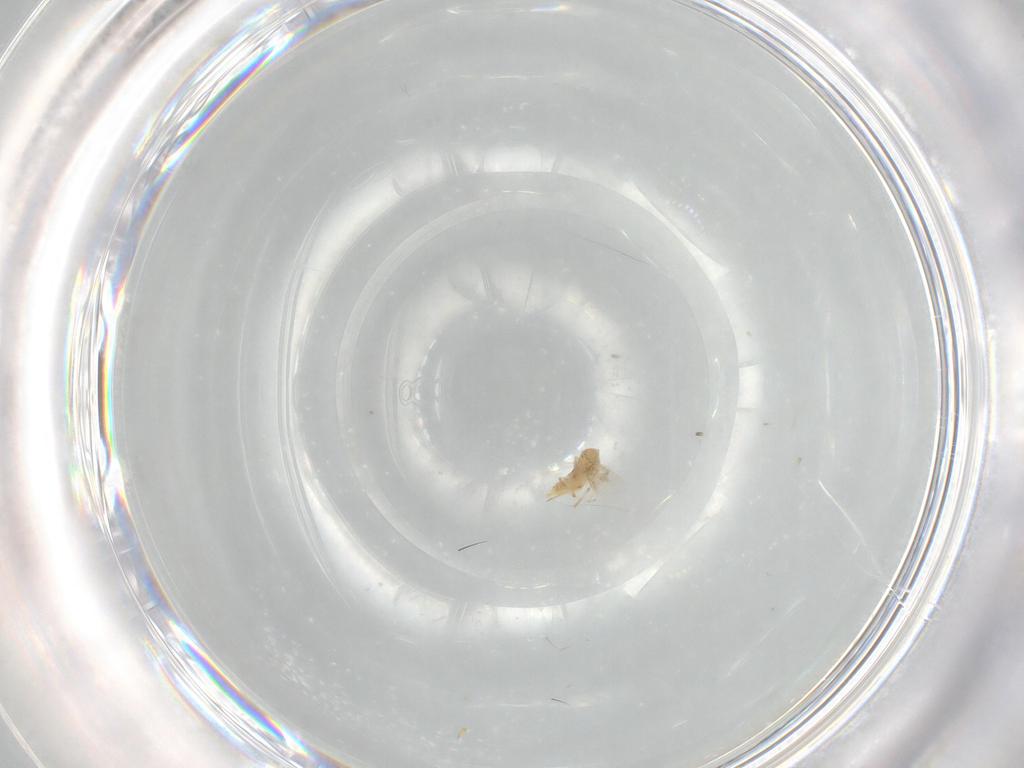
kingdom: Animalia
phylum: Arthropoda
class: Insecta
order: Hymenoptera
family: Aphelinidae
